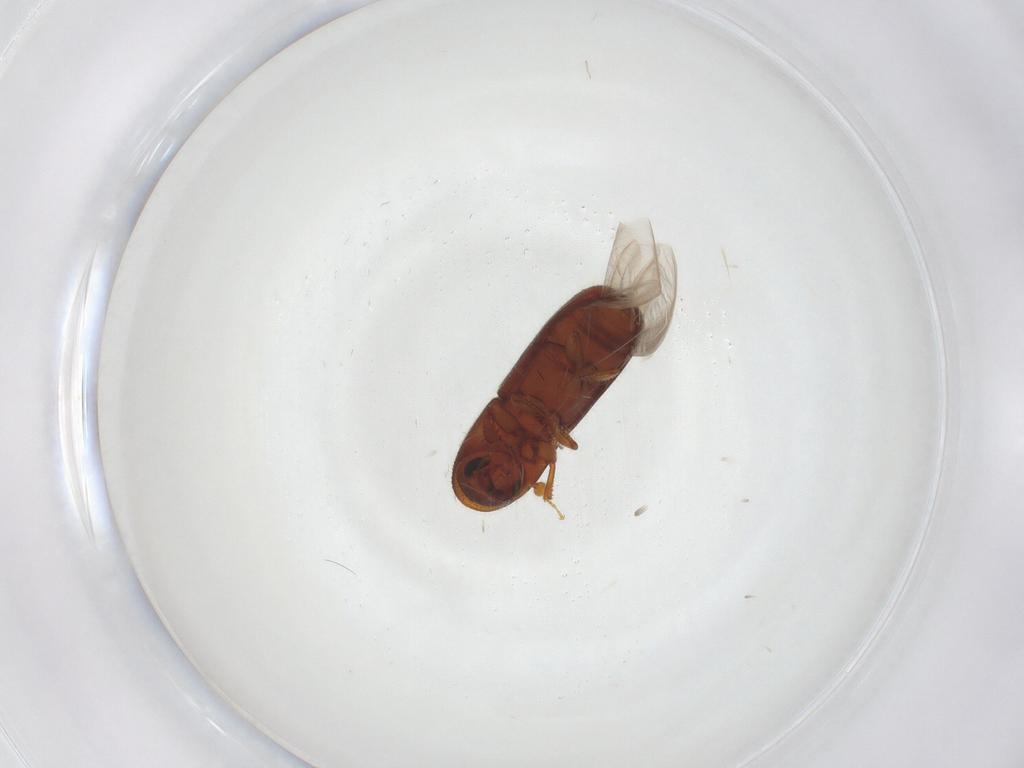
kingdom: Animalia
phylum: Arthropoda
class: Insecta
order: Coleoptera
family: Curculionidae
